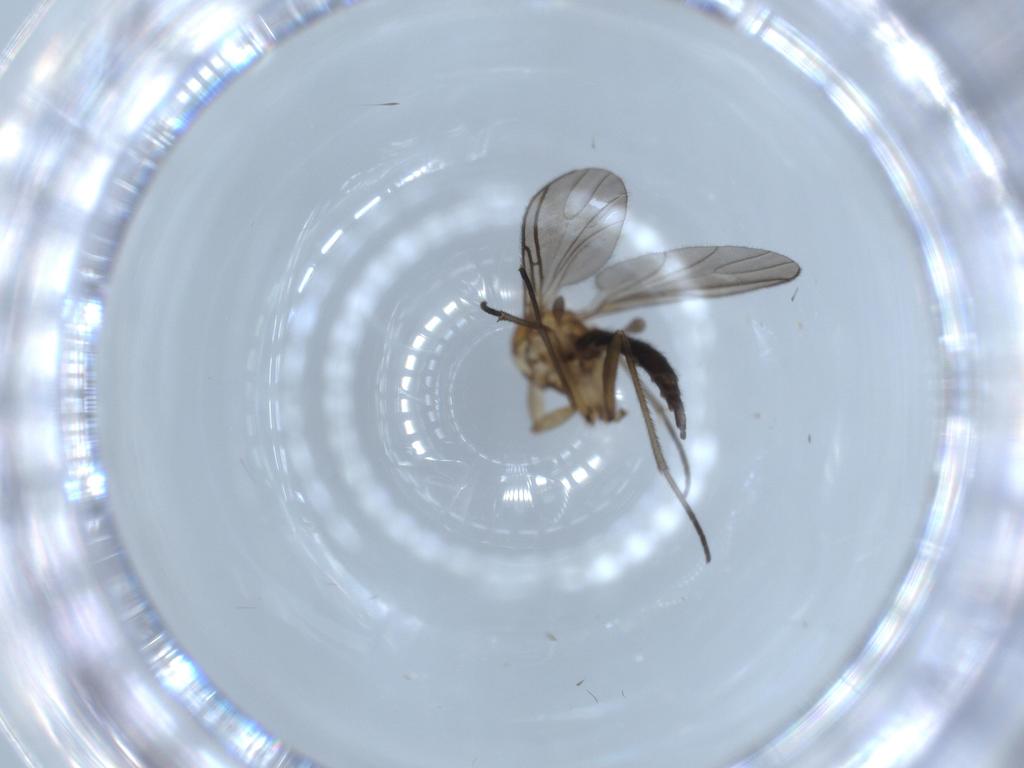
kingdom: Animalia
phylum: Arthropoda
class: Insecta
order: Diptera
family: Sciaridae
